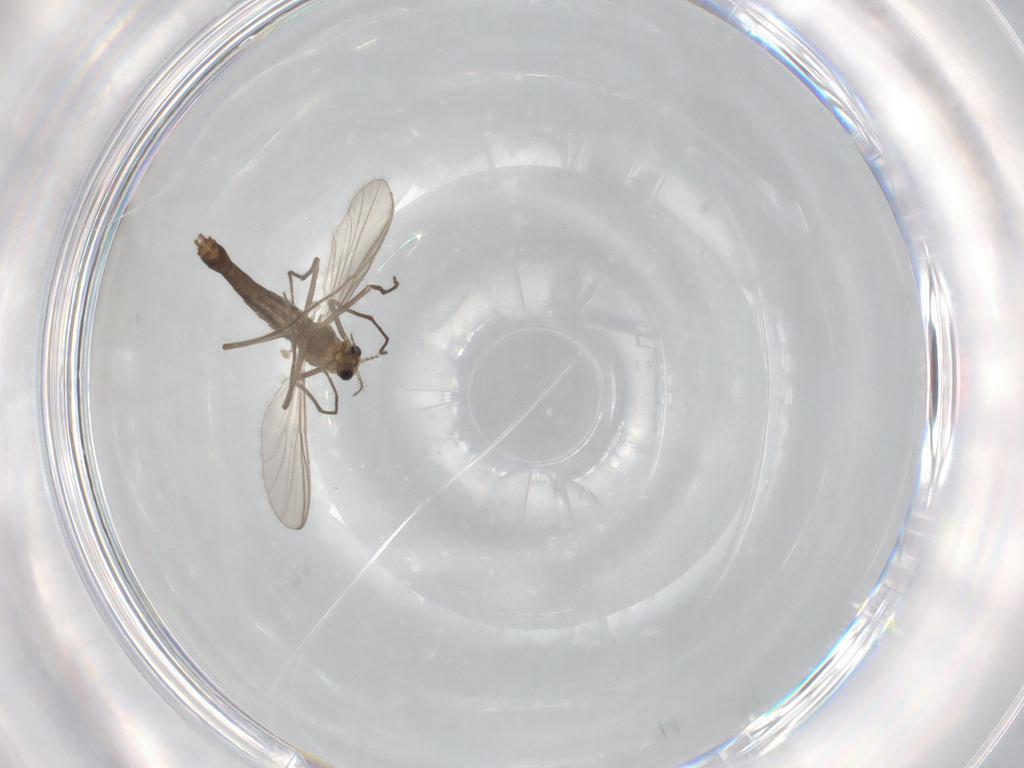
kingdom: Animalia
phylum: Arthropoda
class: Insecta
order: Diptera
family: Chironomidae
